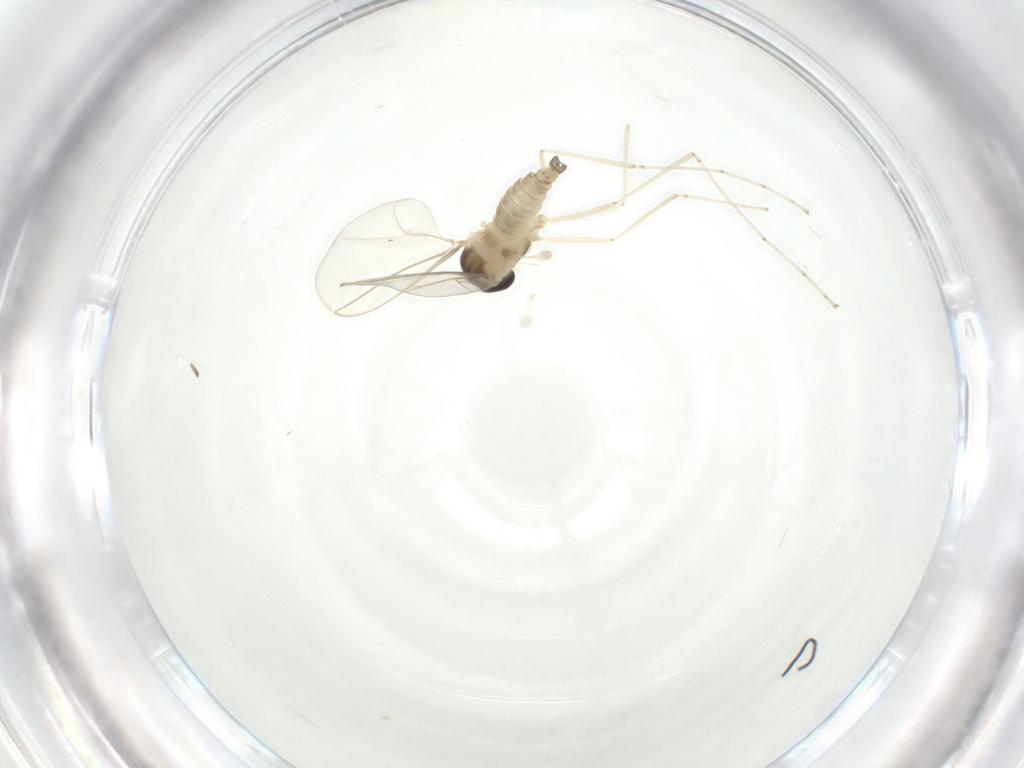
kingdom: Animalia
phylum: Arthropoda
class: Insecta
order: Diptera
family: Cecidomyiidae
